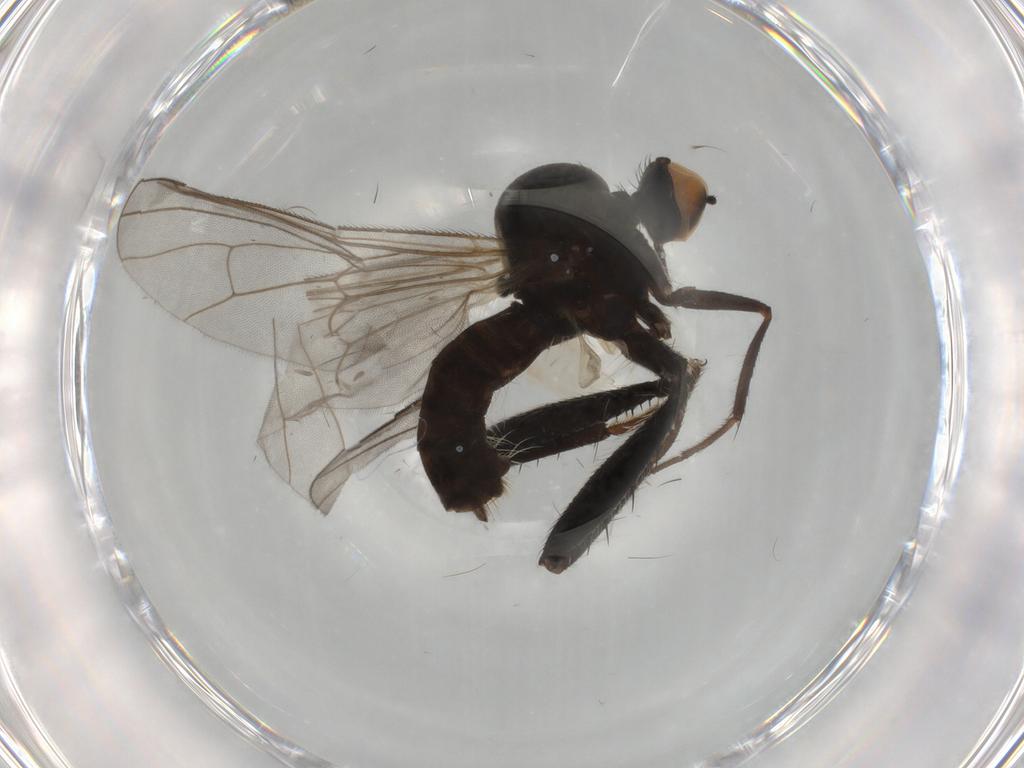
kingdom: Animalia
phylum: Arthropoda
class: Insecta
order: Diptera
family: Hybotidae
